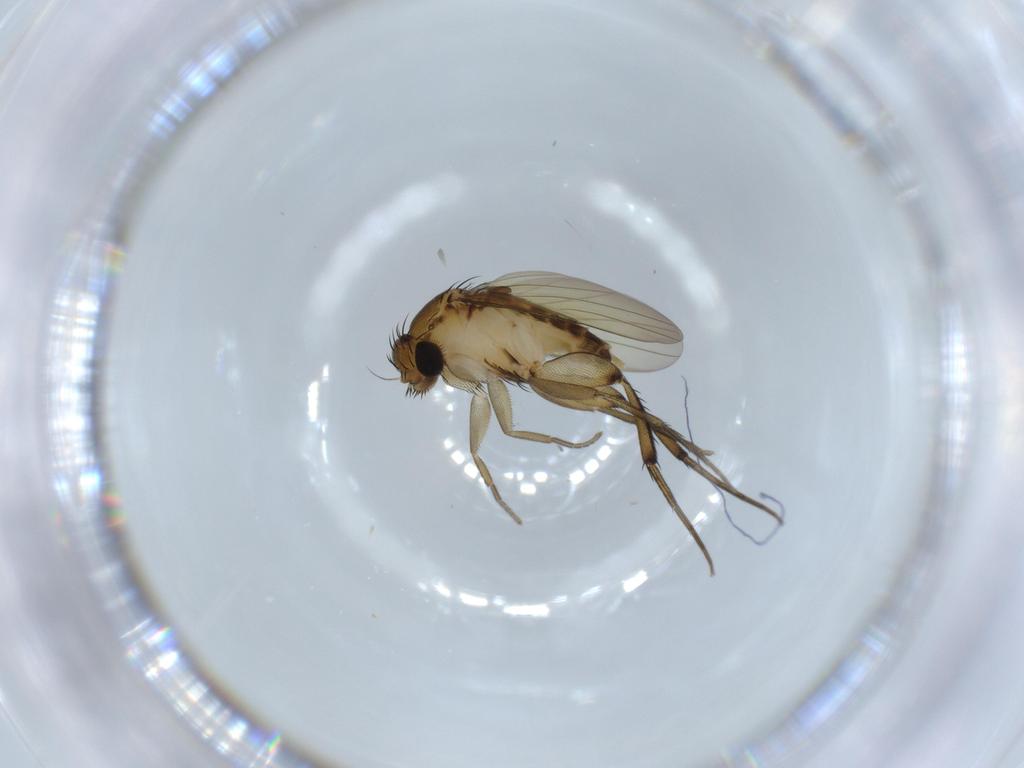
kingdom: Animalia
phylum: Arthropoda
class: Insecta
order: Diptera
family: Phoridae
